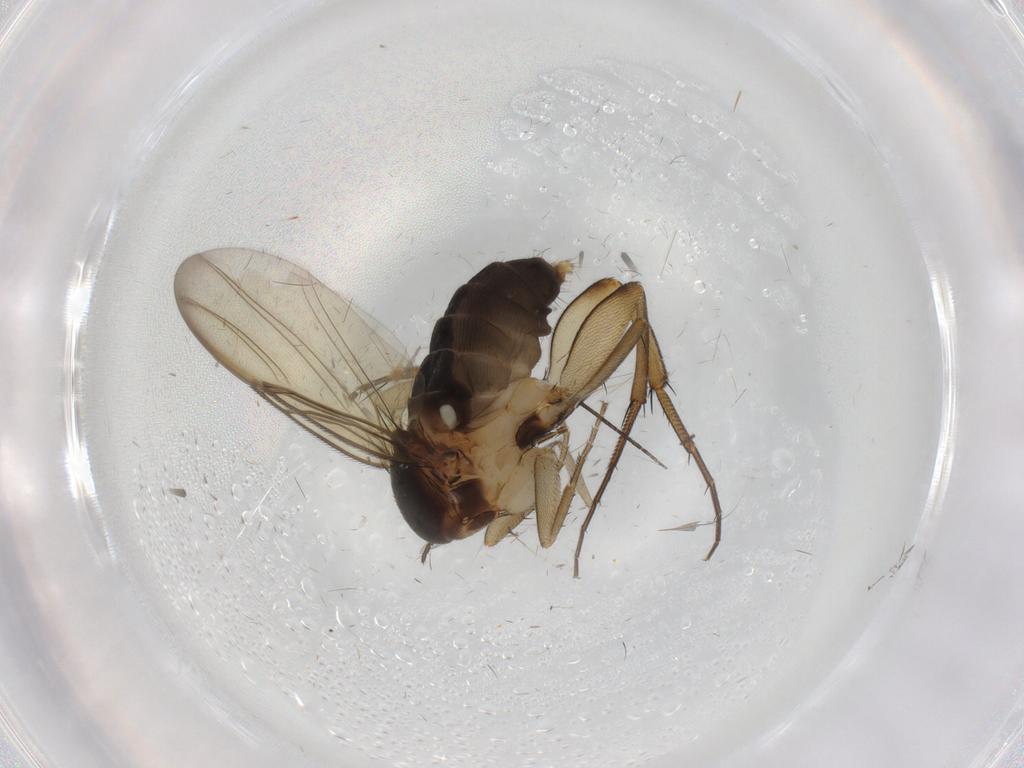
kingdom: Animalia
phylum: Arthropoda
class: Insecta
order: Diptera
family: Phoridae
